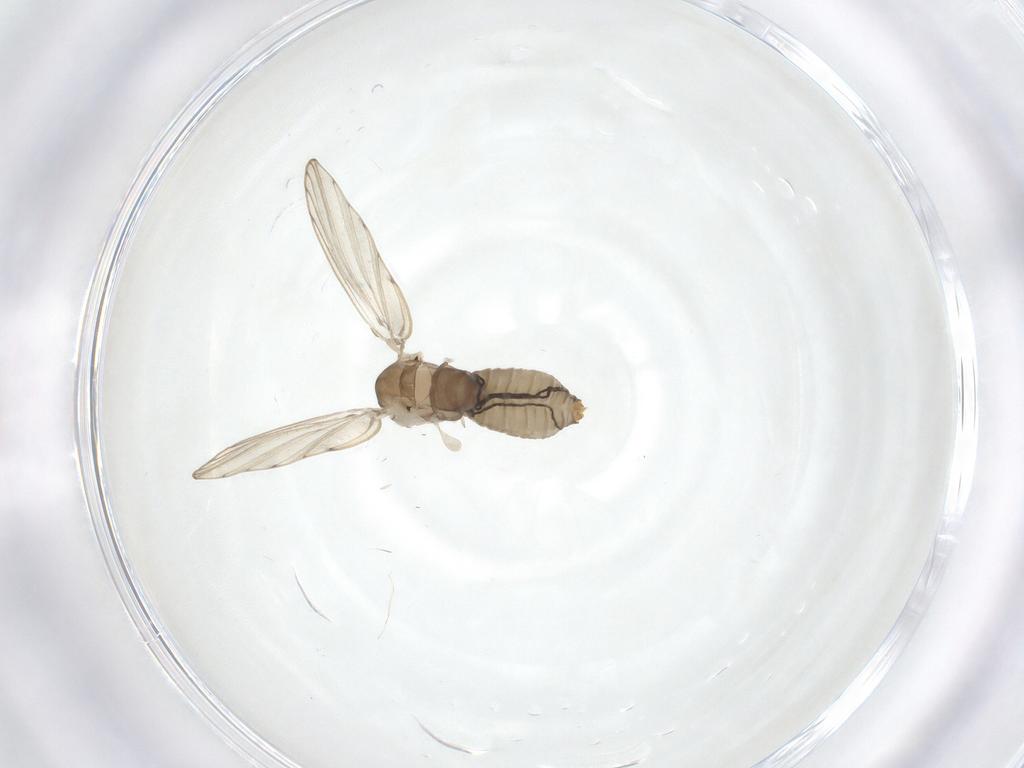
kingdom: Animalia
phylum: Arthropoda
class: Insecta
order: Diptera
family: Psychodidae
